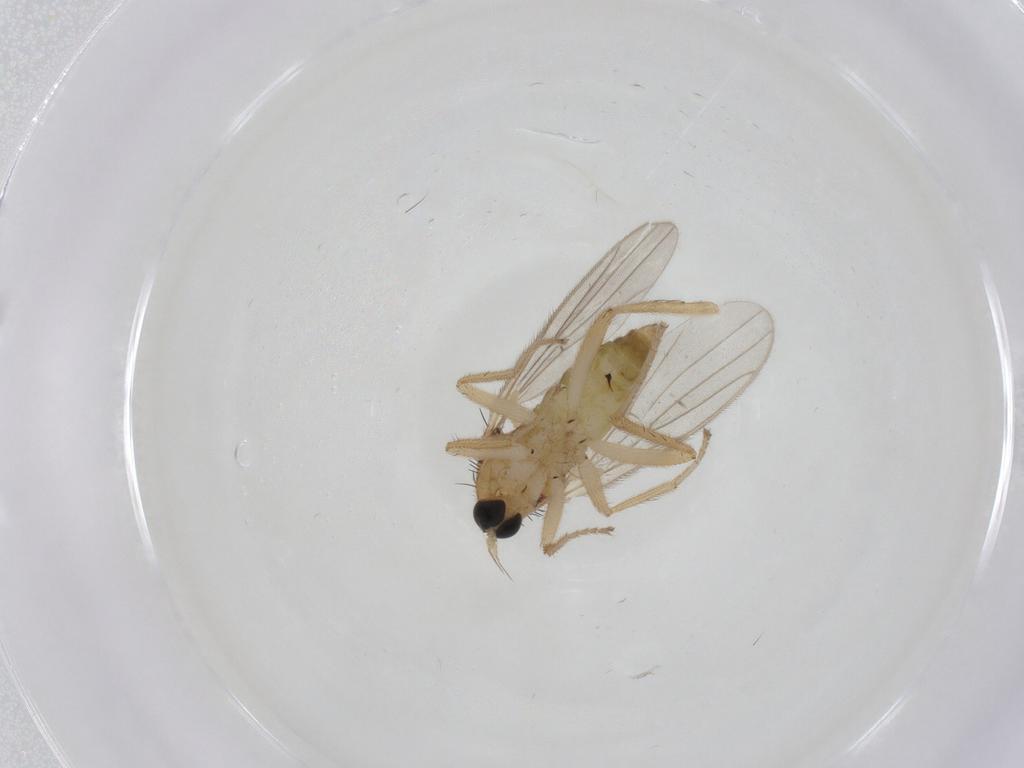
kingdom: Animalia
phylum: Arthropoda
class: Insecta
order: Diptera
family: Hybotidae
